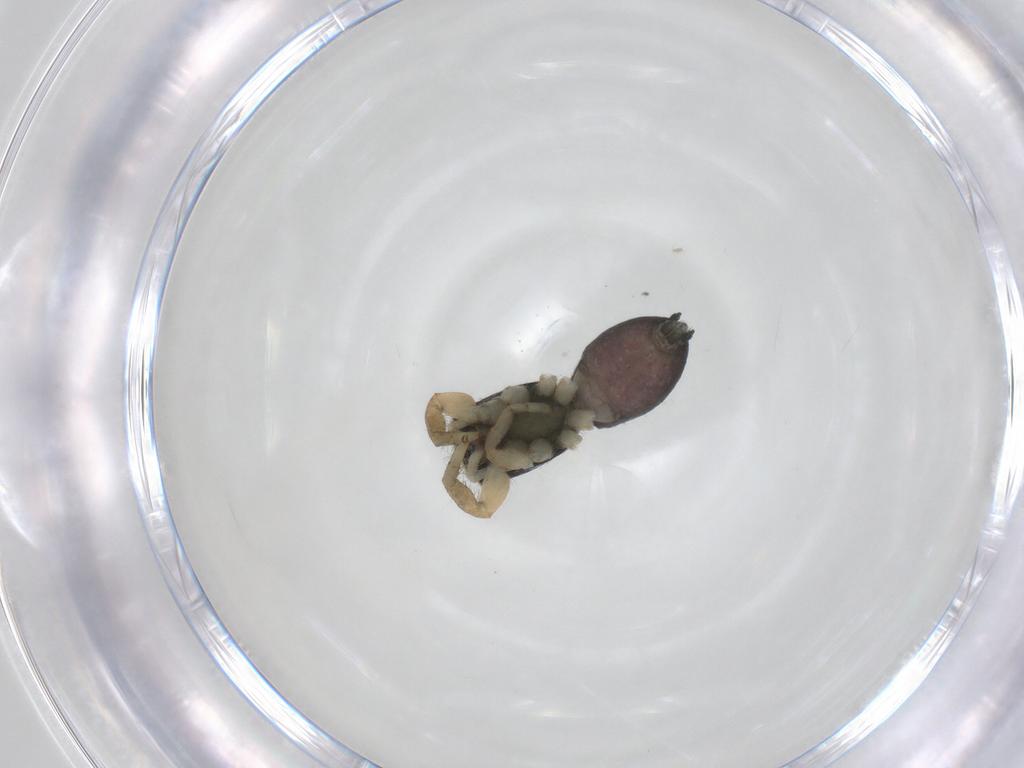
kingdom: Animalia
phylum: Arthropoda
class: Arachnida
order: Araneae
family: Salticidae
